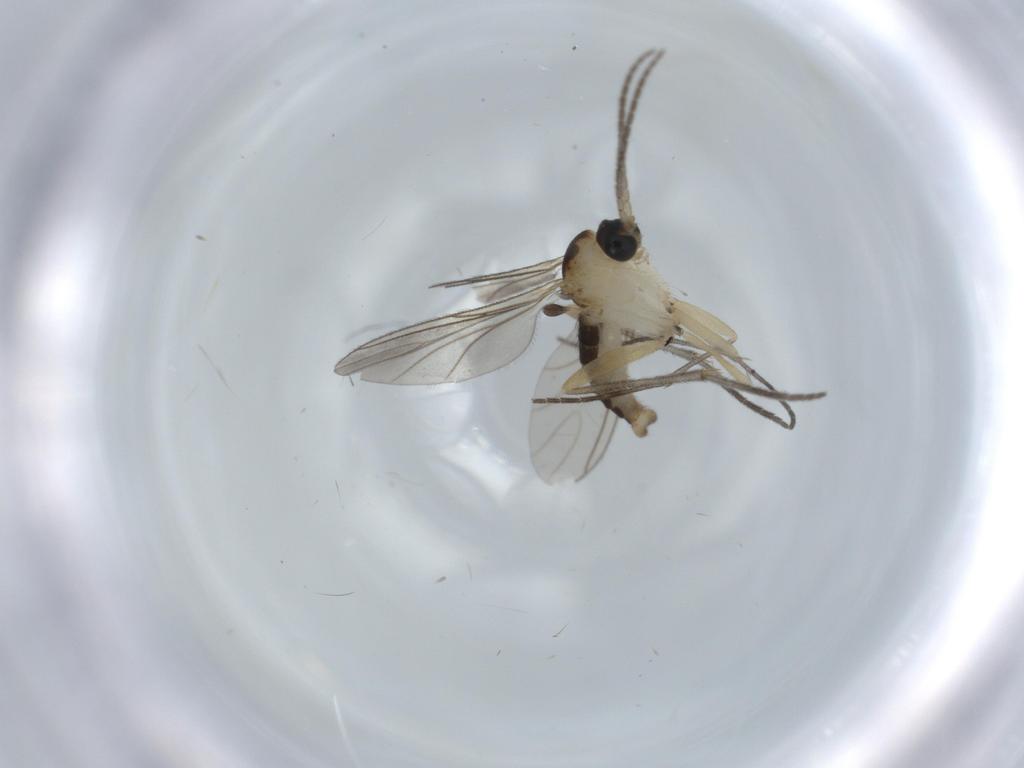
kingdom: Animalia
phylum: Arthropoda
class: Insecta
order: Diptera
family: Sciaridae
